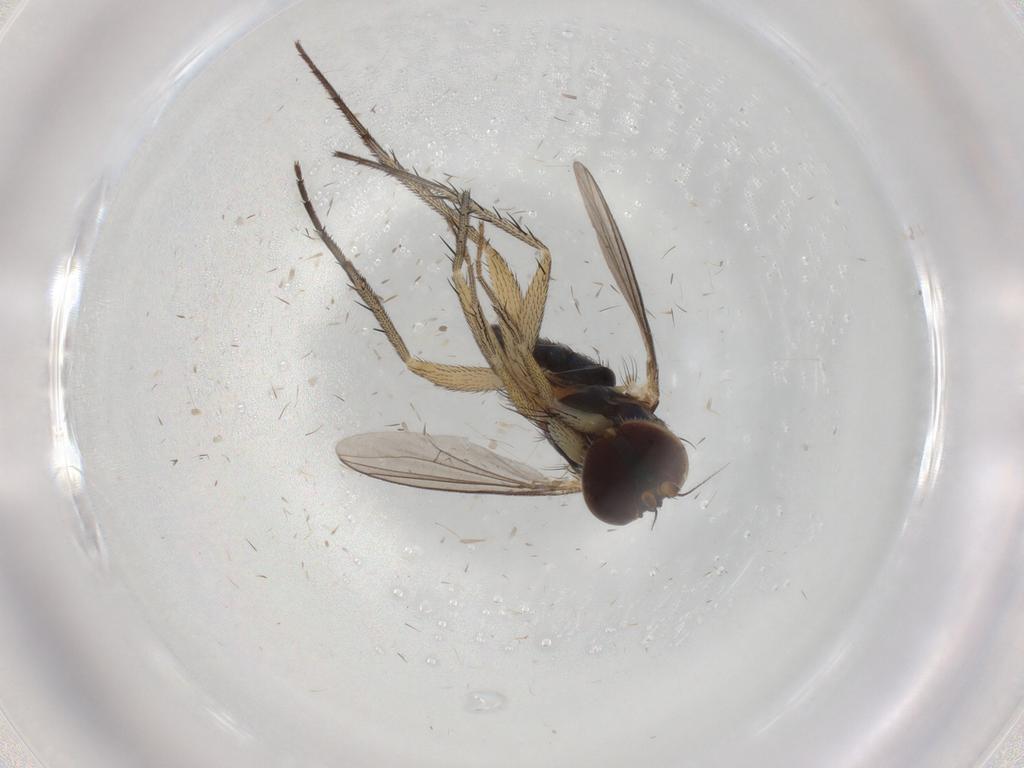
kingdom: Animalia
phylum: Arthropoda
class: Insecta
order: Diptera
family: Dolichopodidae
